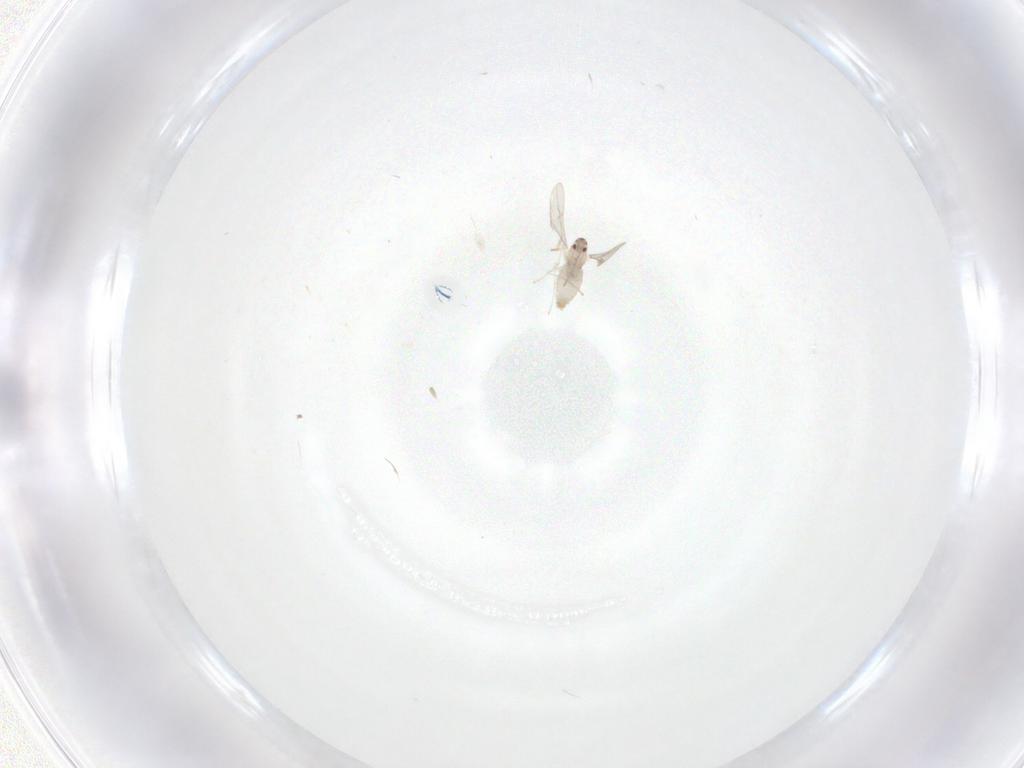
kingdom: Animalia
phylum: Arthropoda
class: Insecta
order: Diptera
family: Cecidomyiidae
